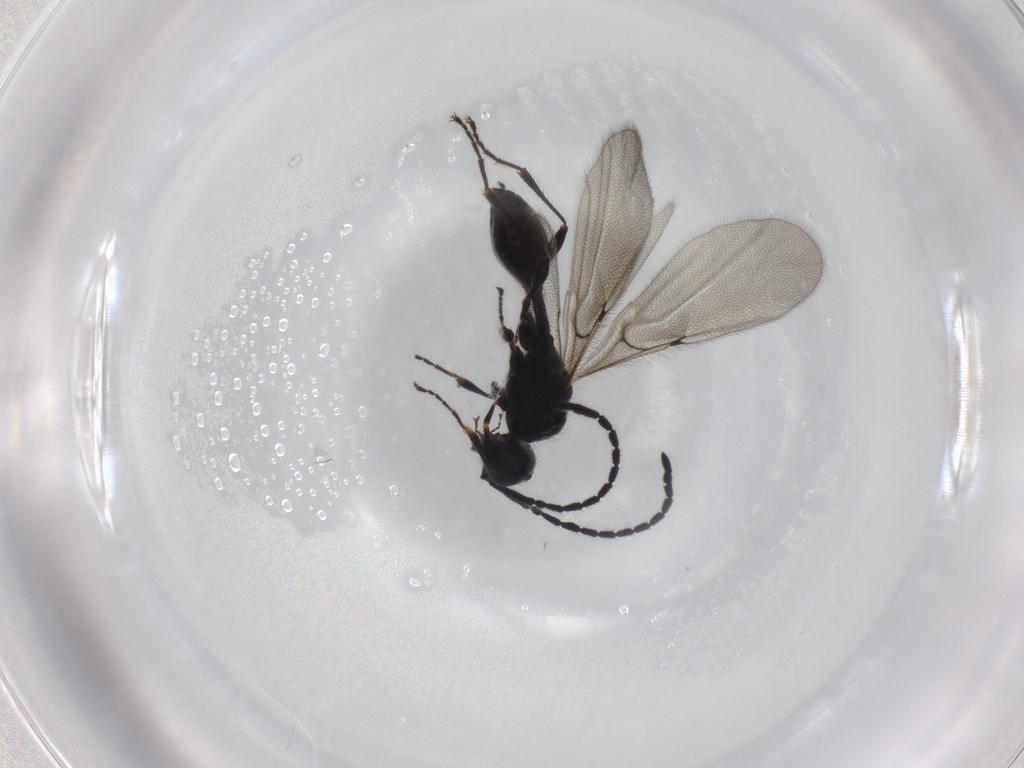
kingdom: Animalia
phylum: Arthropoda
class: Insecta
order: Hymenoptera
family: Diapriidae
